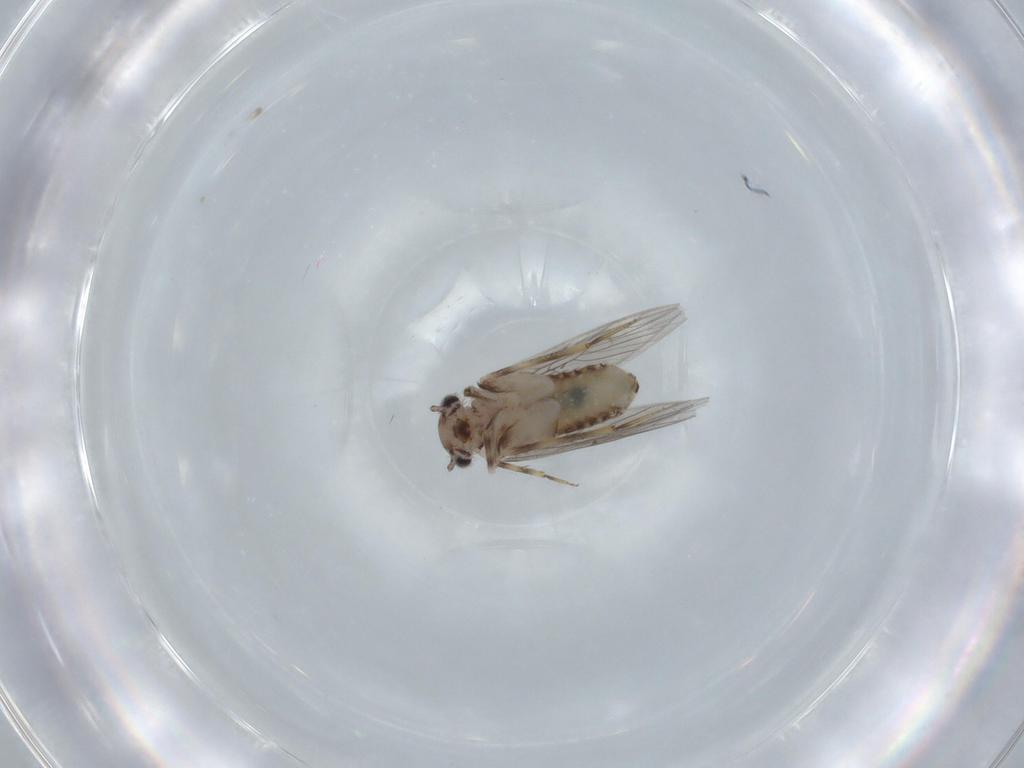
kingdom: Animalia
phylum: Arthropoda
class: Insecta
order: Psocodea
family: Lepidopsocidae
